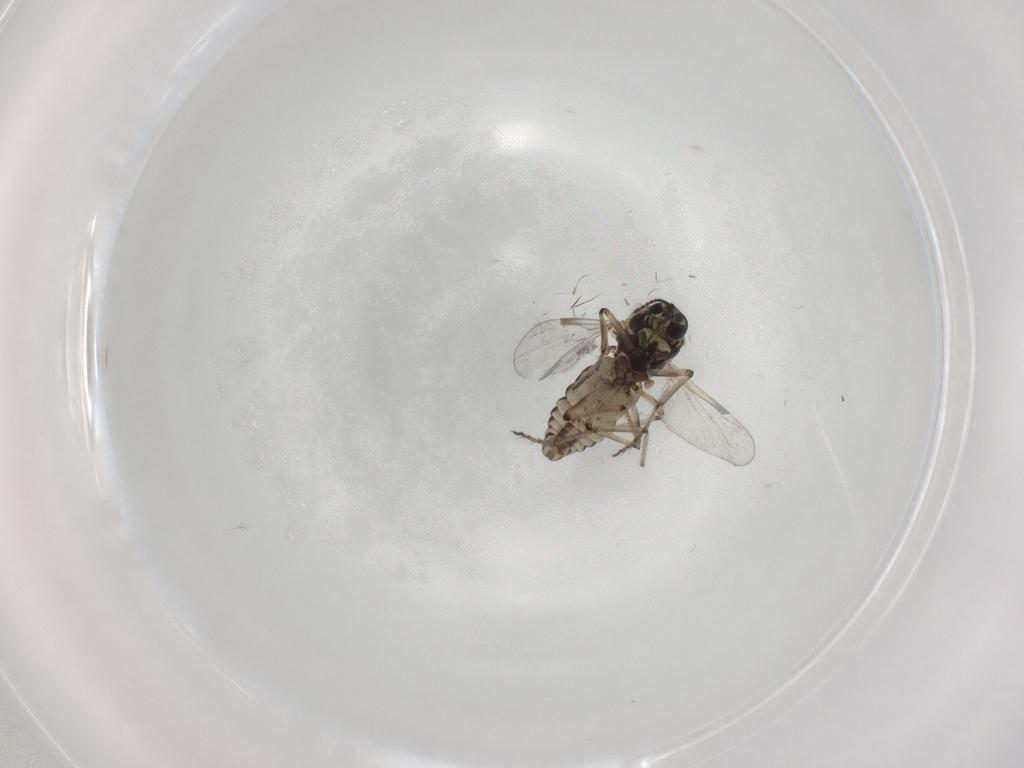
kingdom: Animalia
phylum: Arthropoda
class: Insecta
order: Diptera
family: Ceratopogonidae
